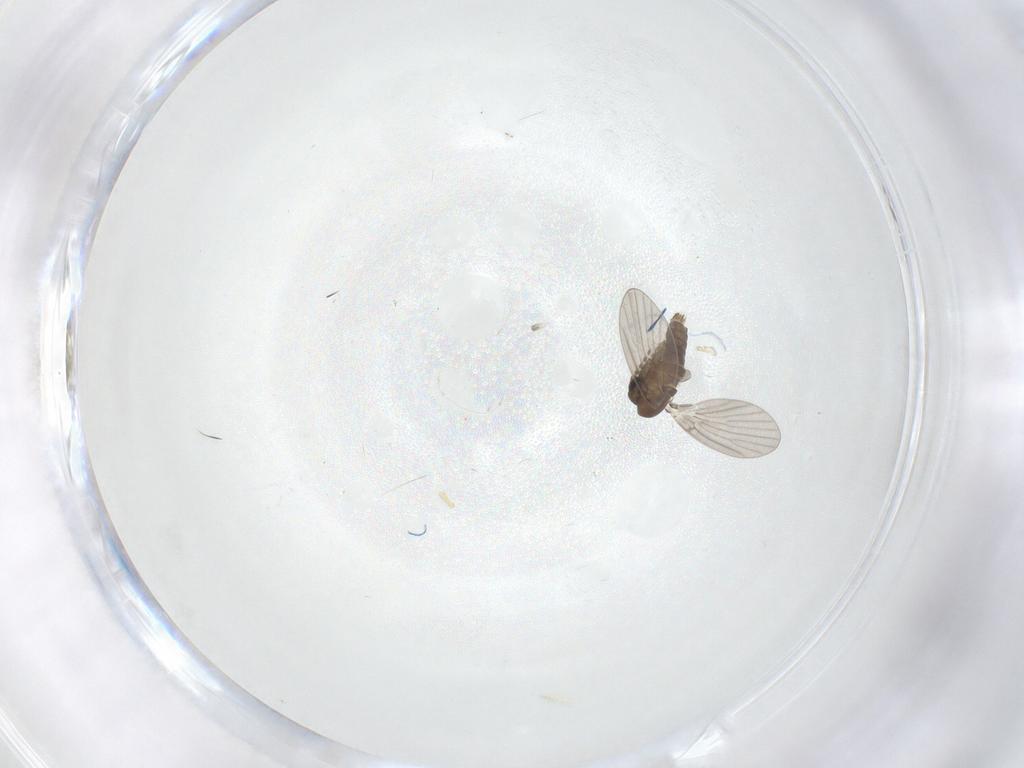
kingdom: Animalia
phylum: Arthropoda
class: Insecta
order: Diptera
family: Mycetophilidae
